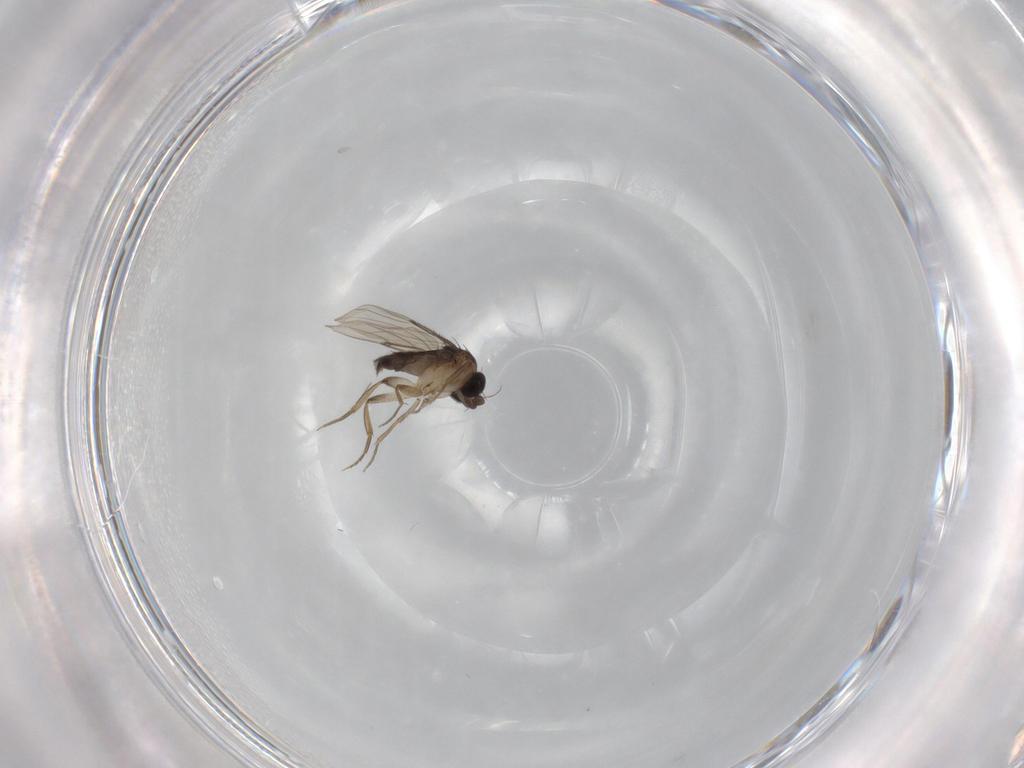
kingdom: Animalia
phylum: Arthropoda
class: Insecta
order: Diptera
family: Phoridae
